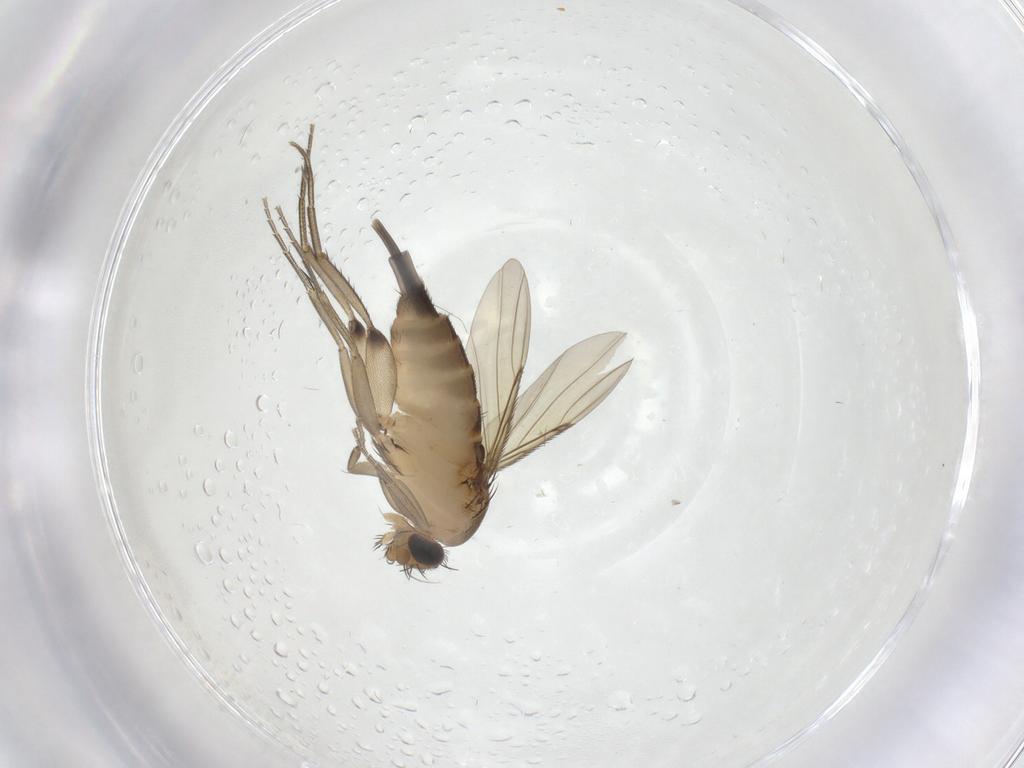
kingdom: Animalia
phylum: Arthropoda
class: Insecta
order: Diptera
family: Phoridae
